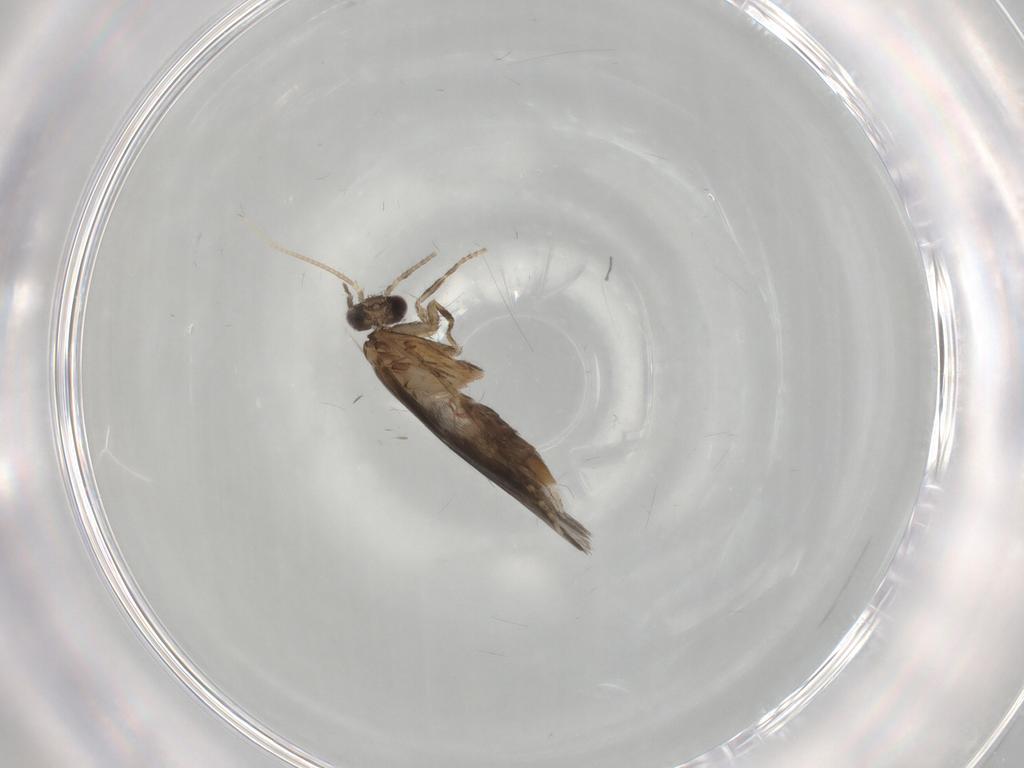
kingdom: Animalia
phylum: Arthropoda
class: Insecta
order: Trichoptera
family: Hydroptilidae
